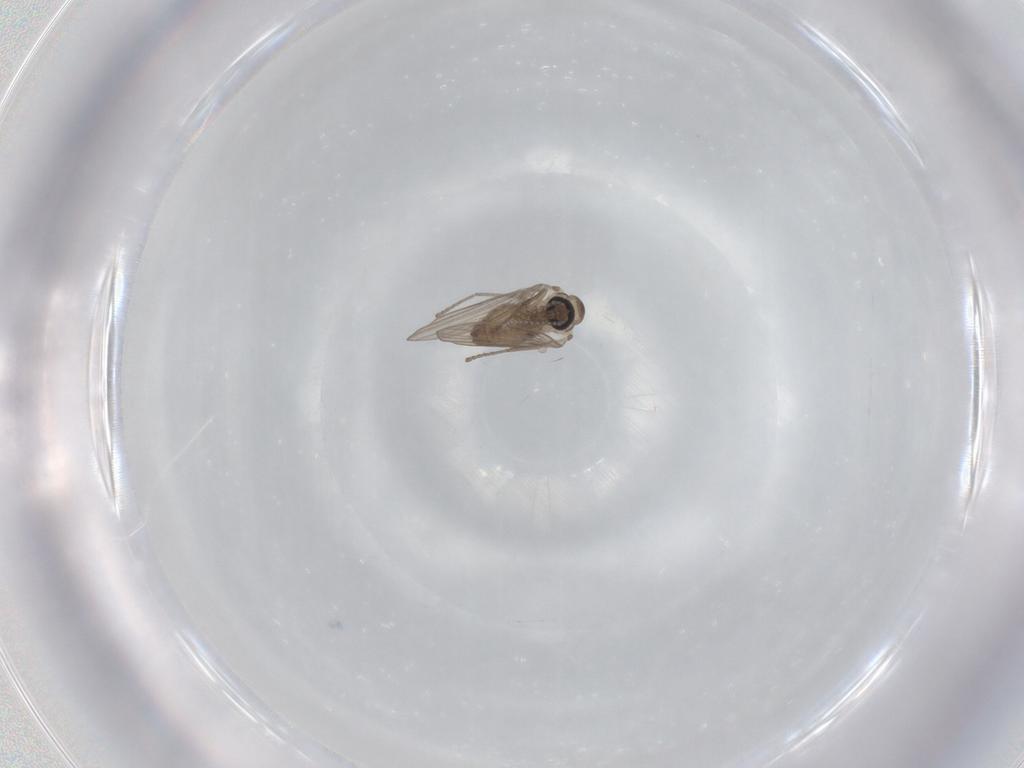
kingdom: Animalia
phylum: Arthropoda
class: Insecta
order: Diptera
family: Psychodidae
